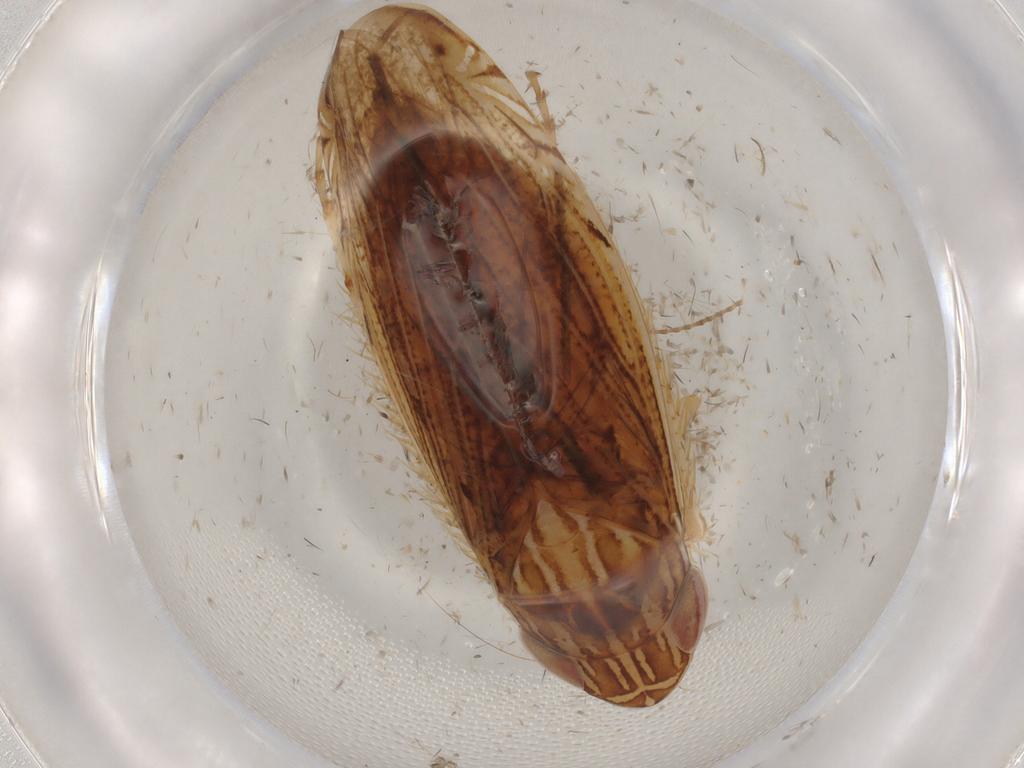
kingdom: Animalia
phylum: Arthropoda
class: Insecta
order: Hemiptera
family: Cicadellidae
